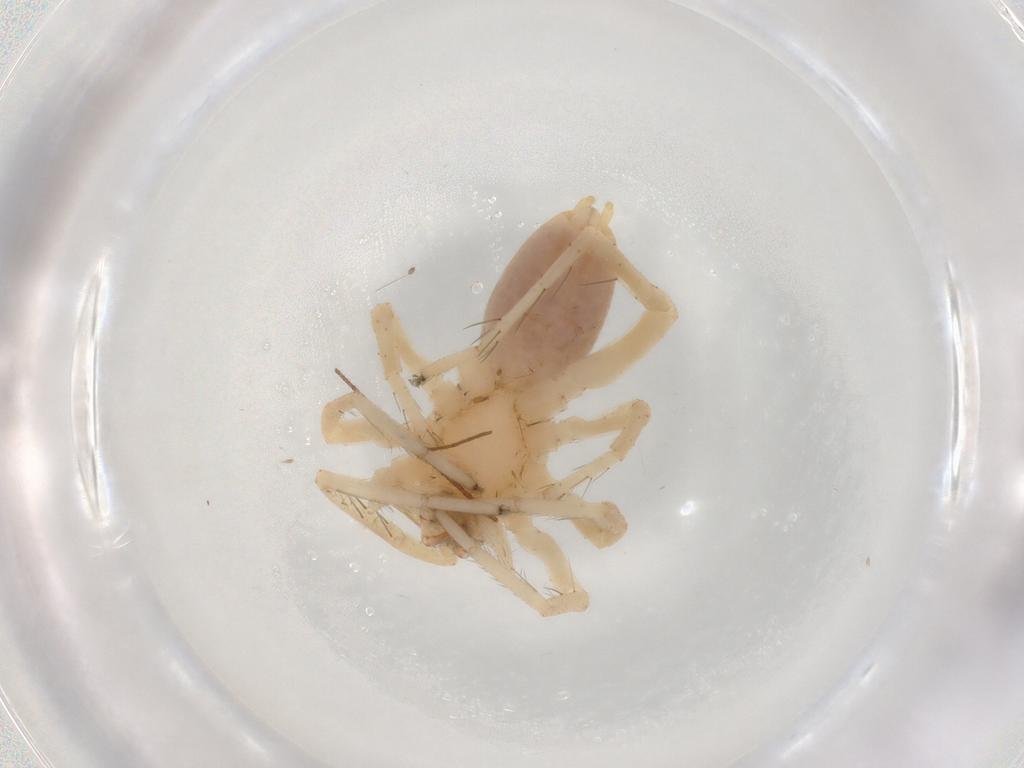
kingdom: Animalia
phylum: Arthropoda
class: Arachnida
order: Araneae
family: Anyphaenidae
